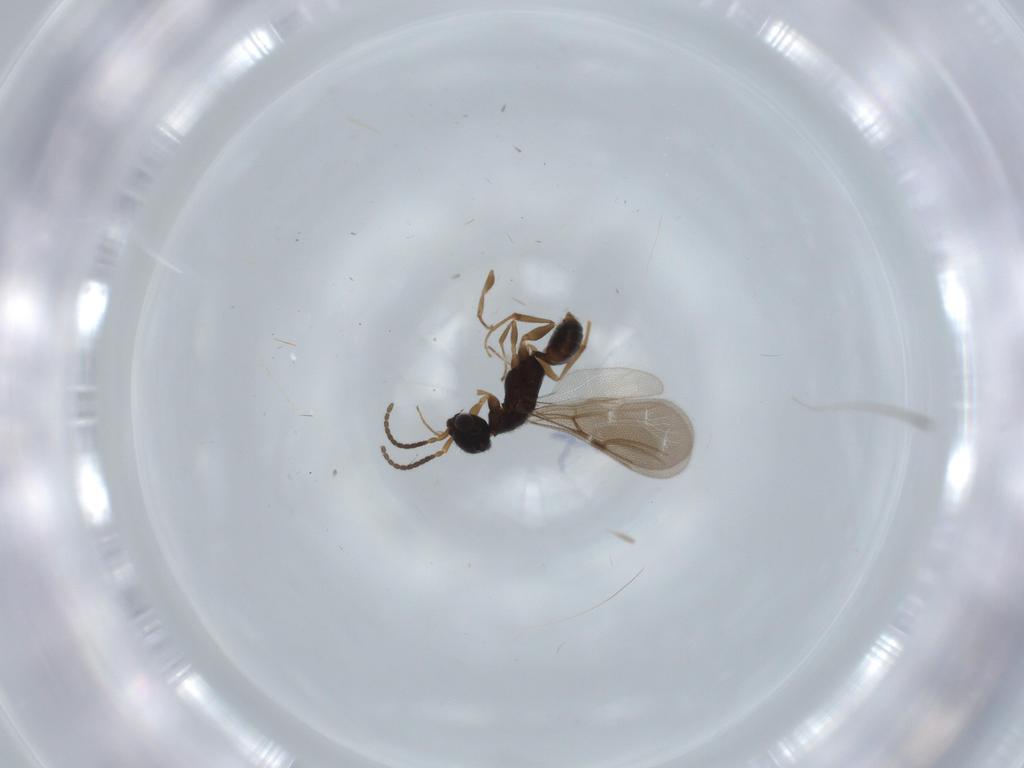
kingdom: Animalia
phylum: Arthropoda
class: Insecta
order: Hymenoptera
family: Bethylidae
